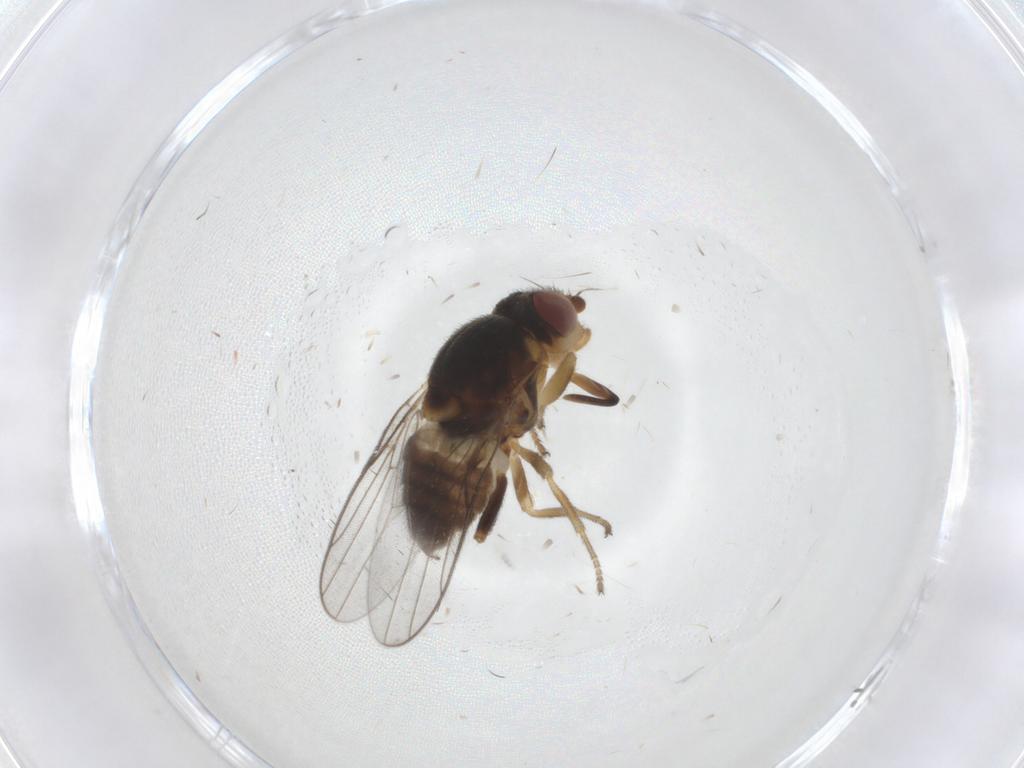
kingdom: Animalia
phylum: Arthropoda
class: Insecta
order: Diptera
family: Chloropidae
